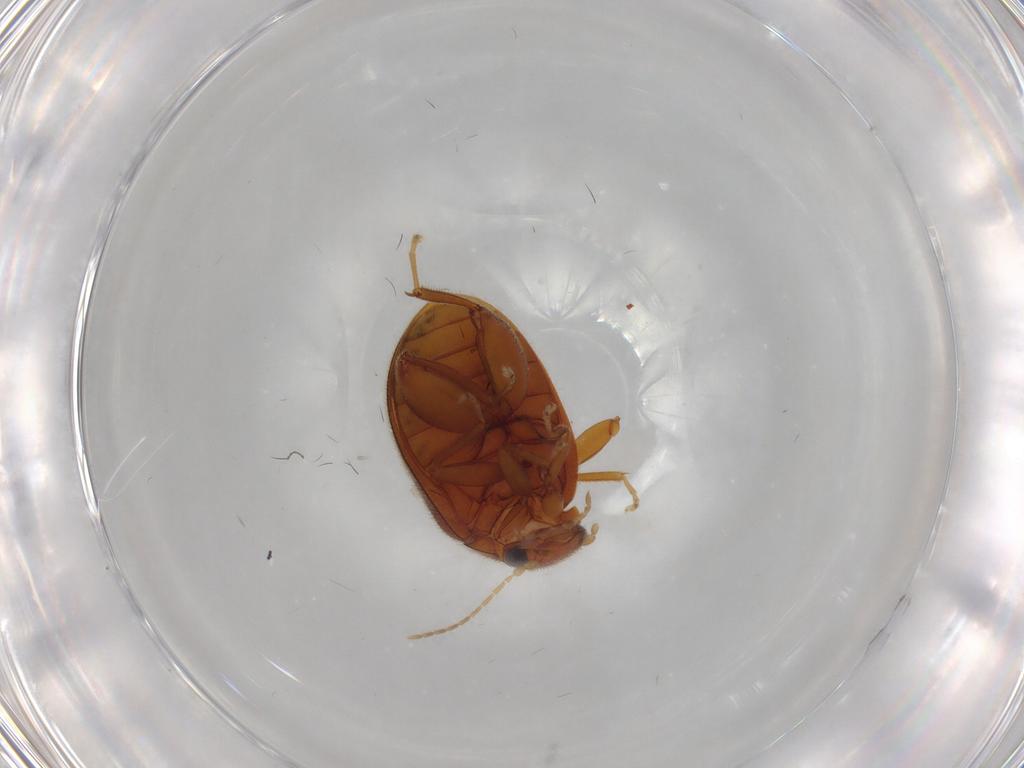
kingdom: Animalia
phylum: Arthropoda
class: Insecta
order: Coleoptera
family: Scirtidae
